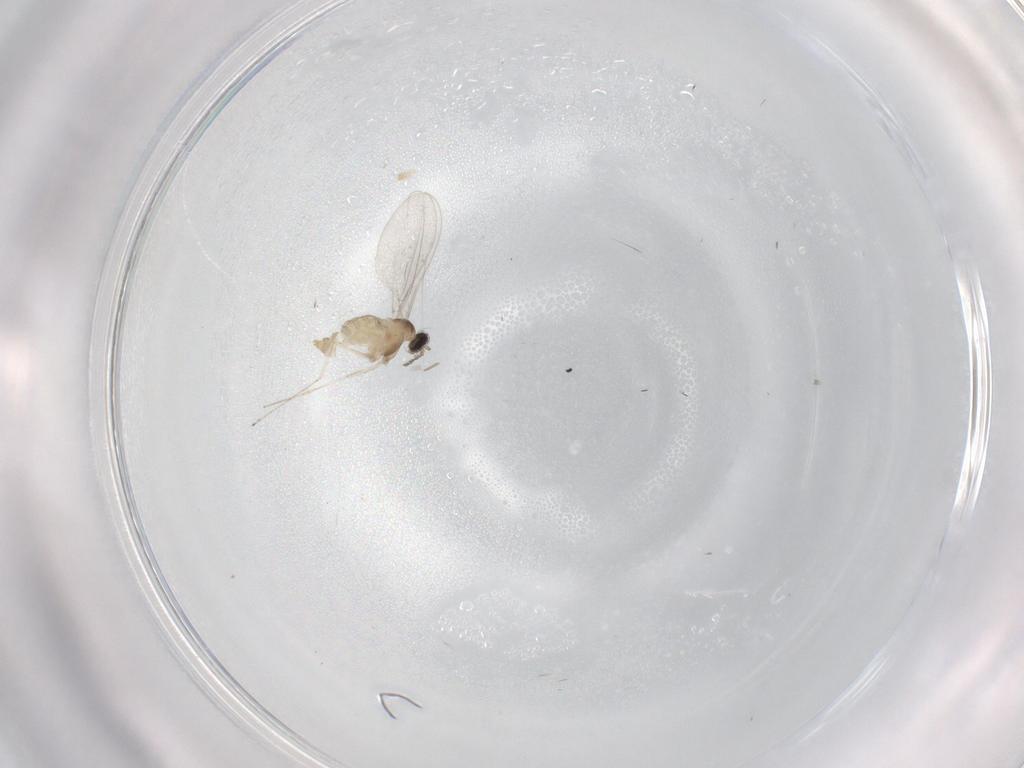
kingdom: Animalia
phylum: Arthropoda
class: Insecta
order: Diptera
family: Cecidomyiidae
